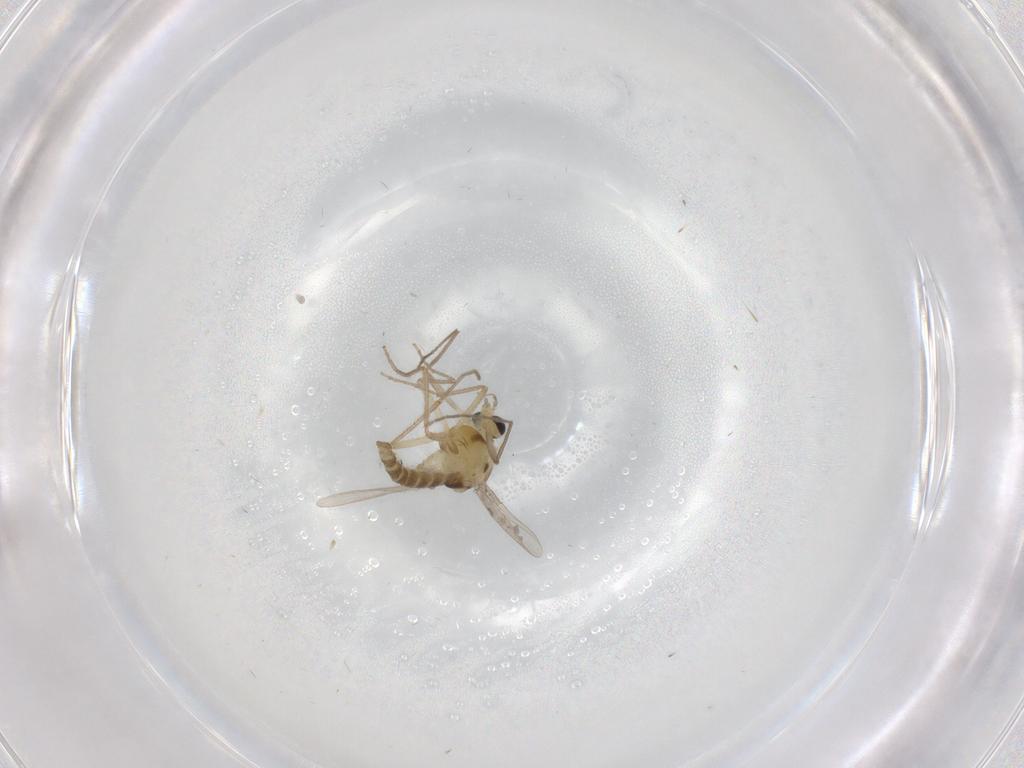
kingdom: Animalia
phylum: Arthropoda
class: Insecta
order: Diptera
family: Chironomidae
